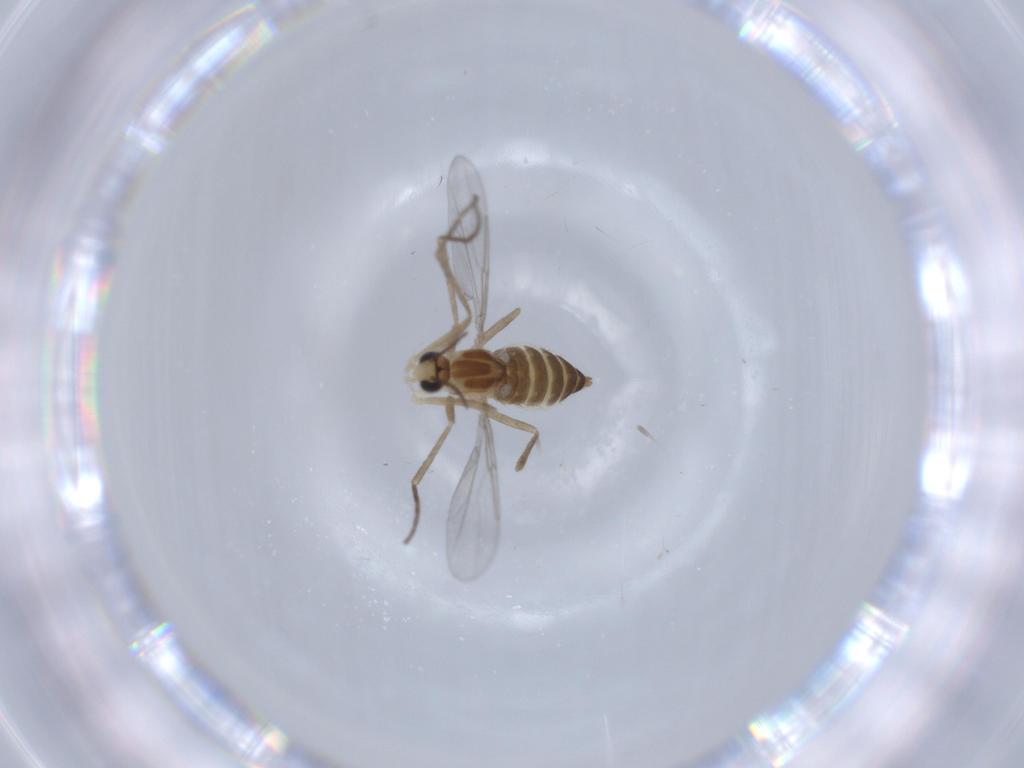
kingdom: Animalia
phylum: Arthropoda
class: Insecta
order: Diptera
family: Cecidomyiidae
